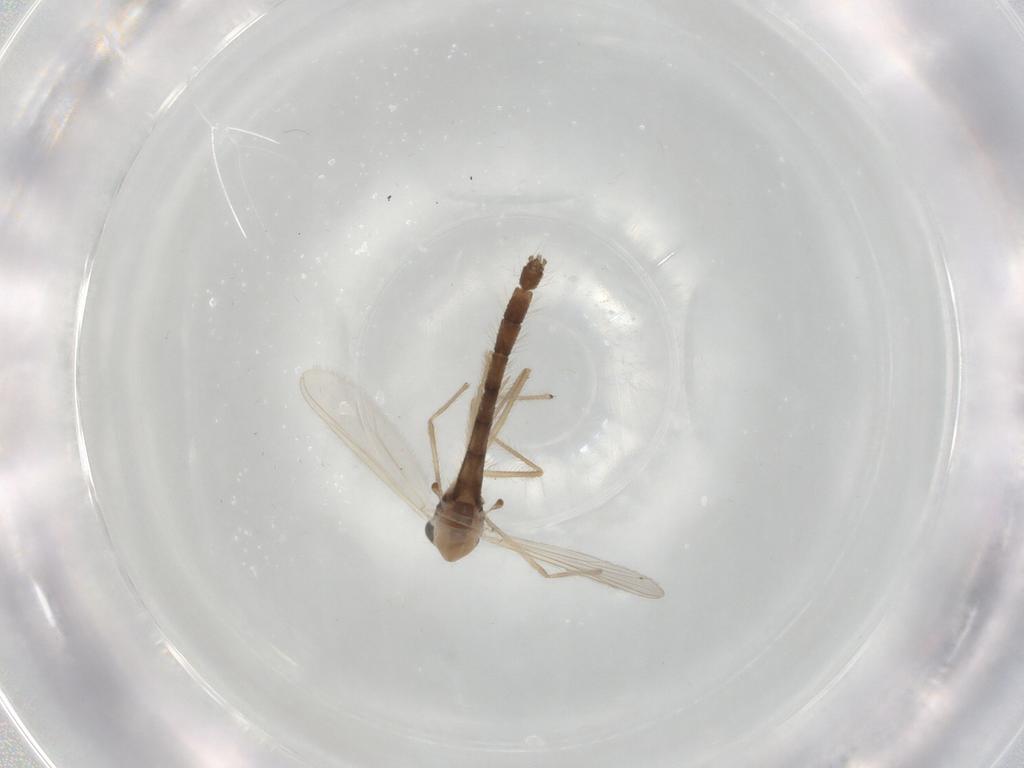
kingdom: Animalia
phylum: Arthropoda
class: Insecta
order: Diptera
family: Chironomidae
